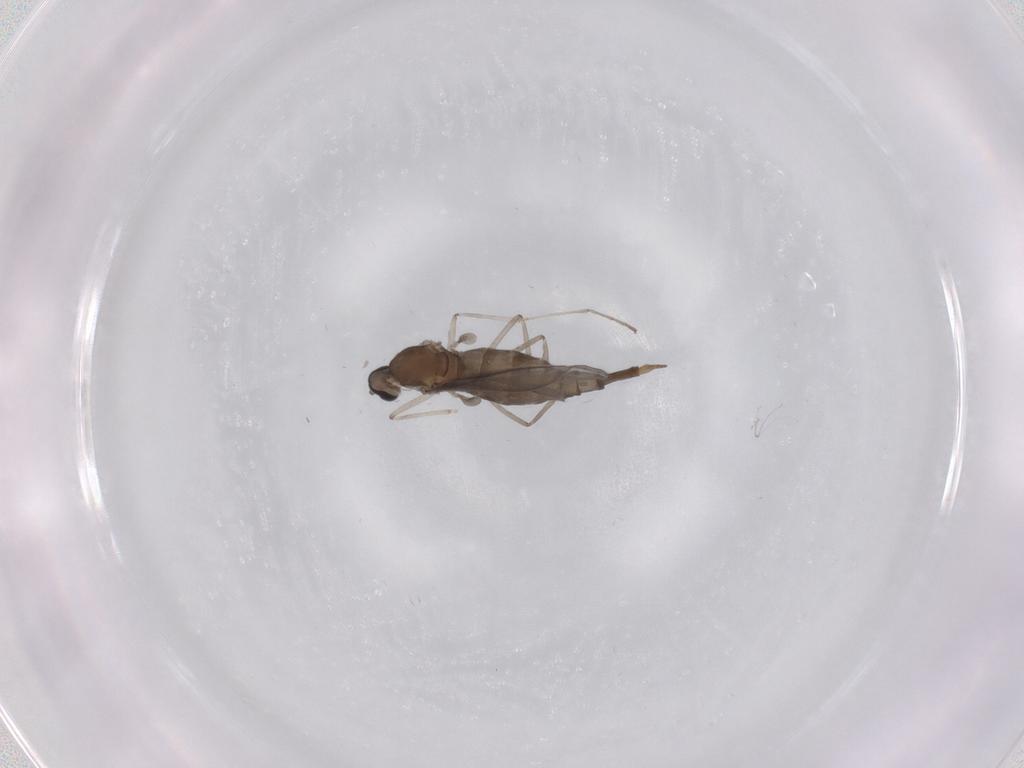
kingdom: Animalia
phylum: Arthropoda
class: Insecta
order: Diptera
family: Cecidomyiidae
